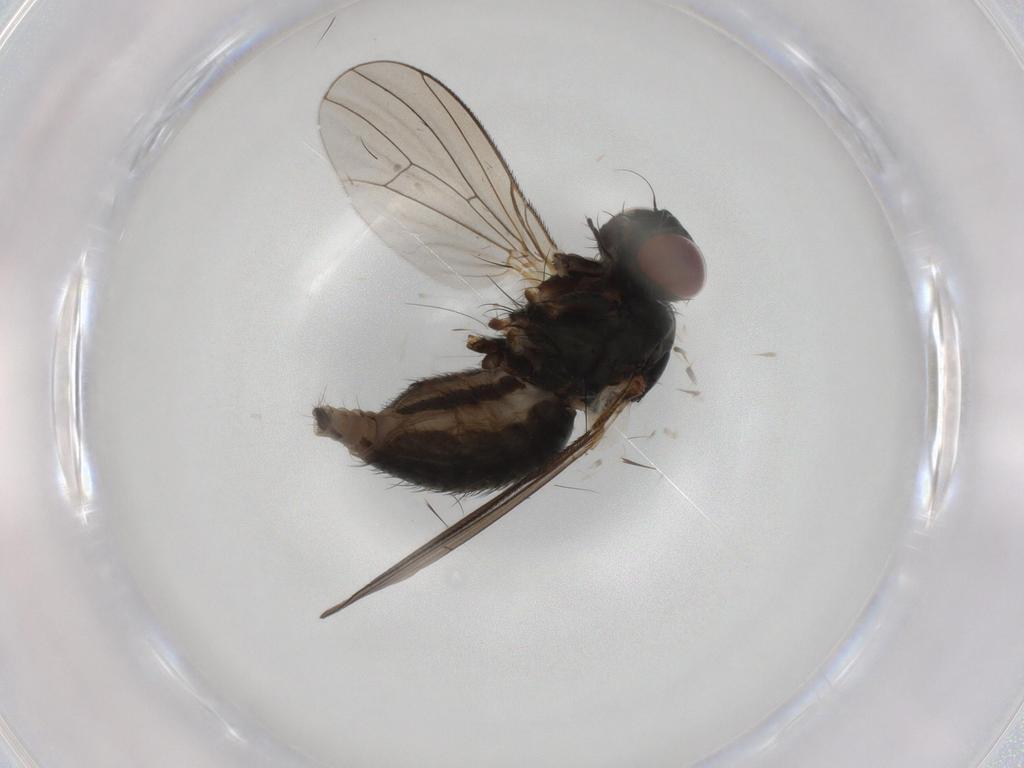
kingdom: Animalia
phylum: Arthropoda
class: Insecta
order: Diptera
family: Muscidae
